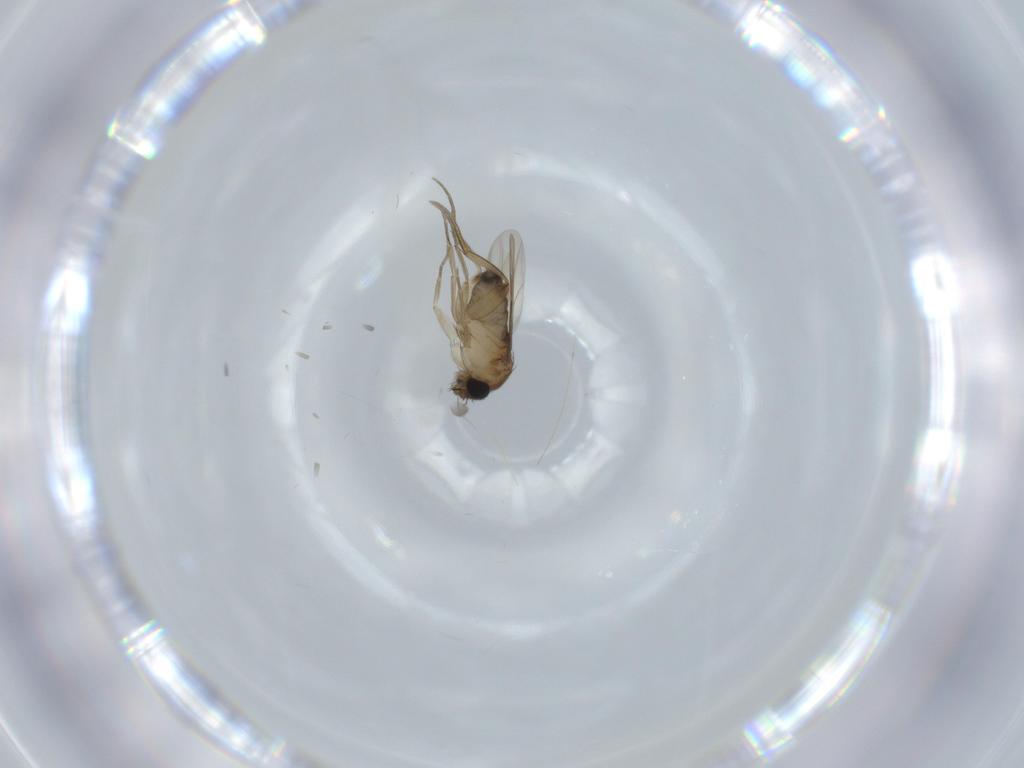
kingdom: Animalia
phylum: Arthropoda
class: Insecta
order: Diptera
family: Phoridae
